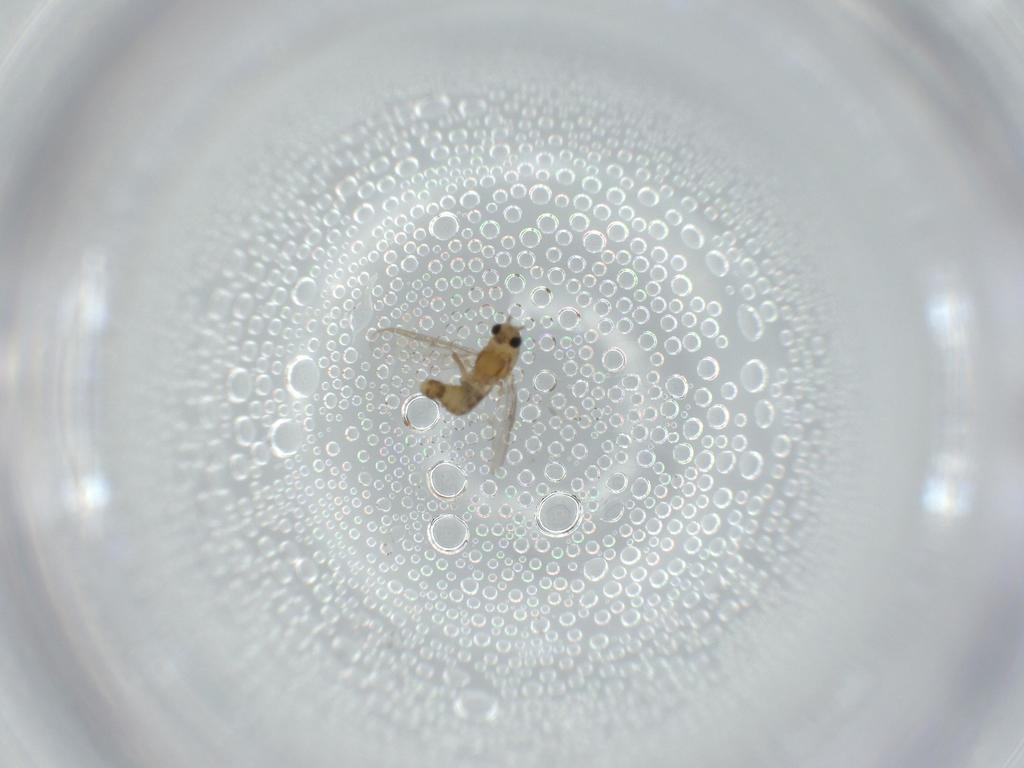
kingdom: Animalia
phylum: Arthropoda
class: Insecta
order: Diptera
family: Chironomidae
